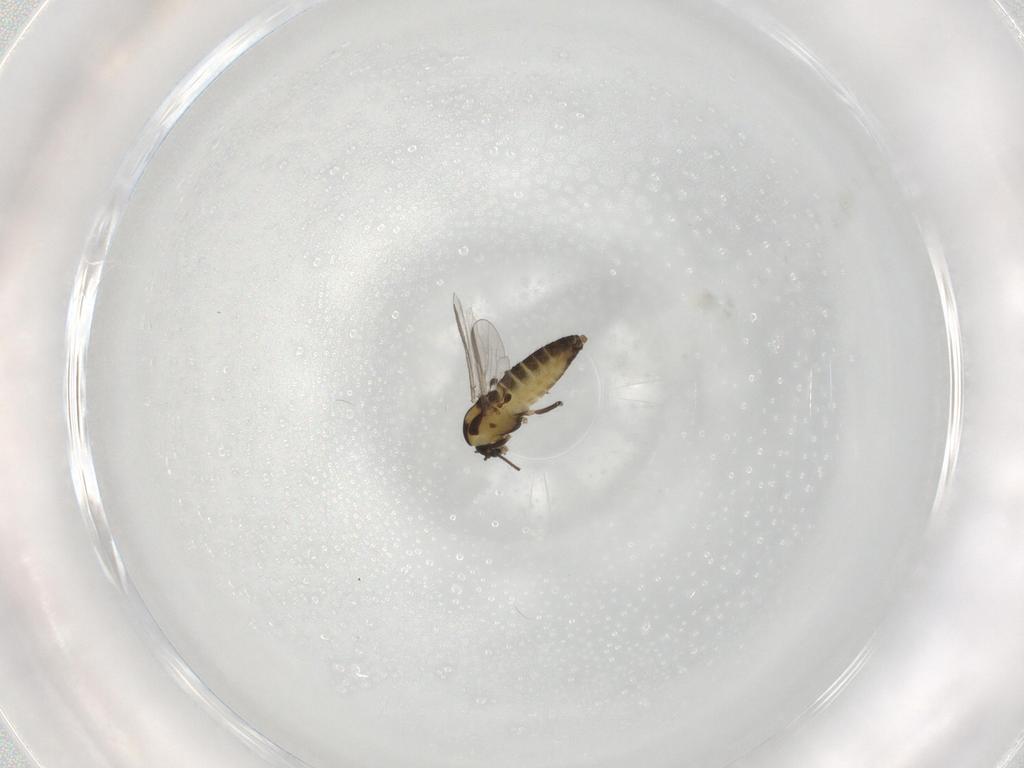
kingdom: Animalia
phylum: Arthropoda
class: Insecta
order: Diptera
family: Chironomidae
